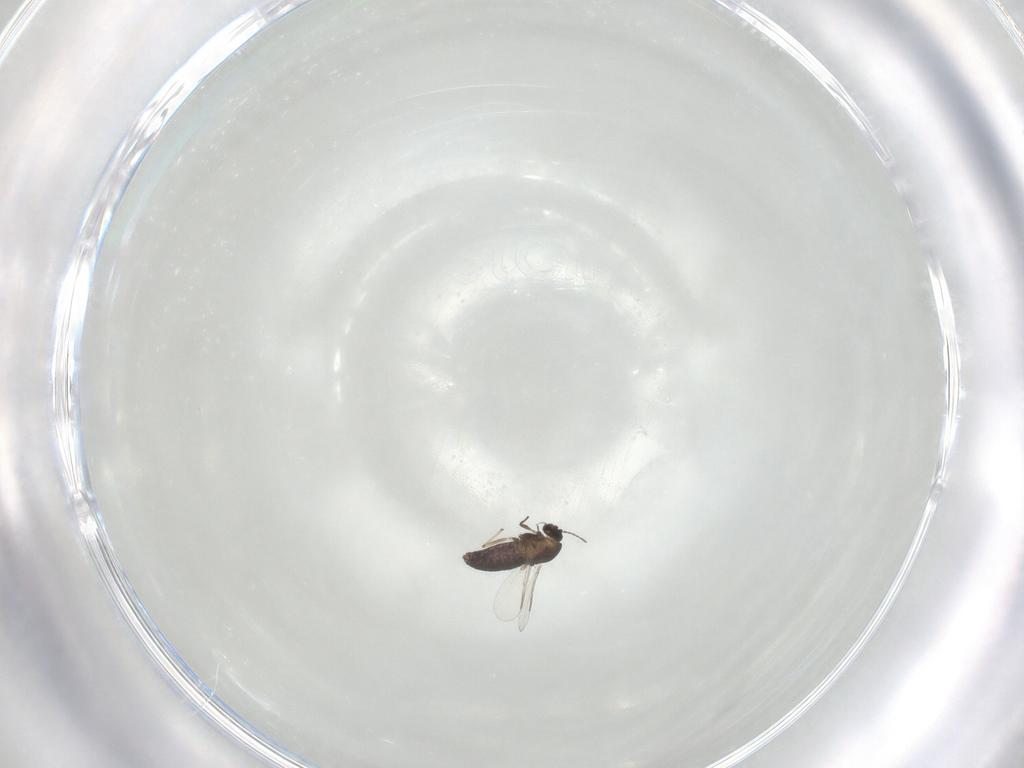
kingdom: Animalia
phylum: Arthropoda
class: Insecta
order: Diptera
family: Chironomidae
